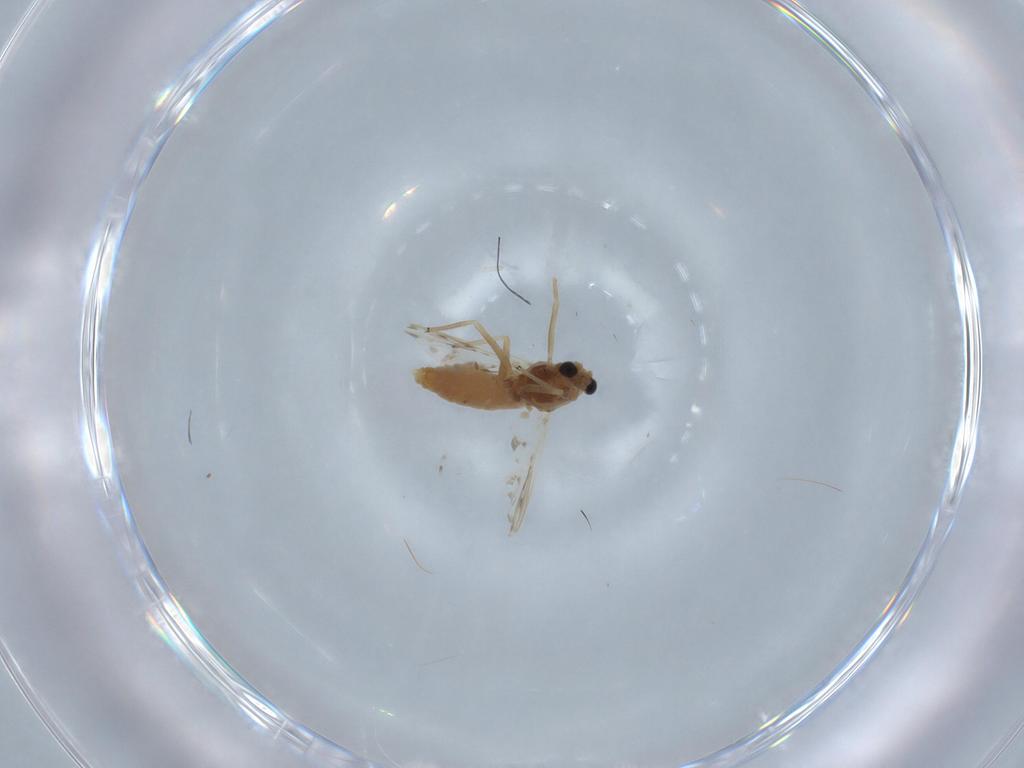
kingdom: Animalia
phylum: Arthropoda
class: Insecta
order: Diptera
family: Chironomidae
